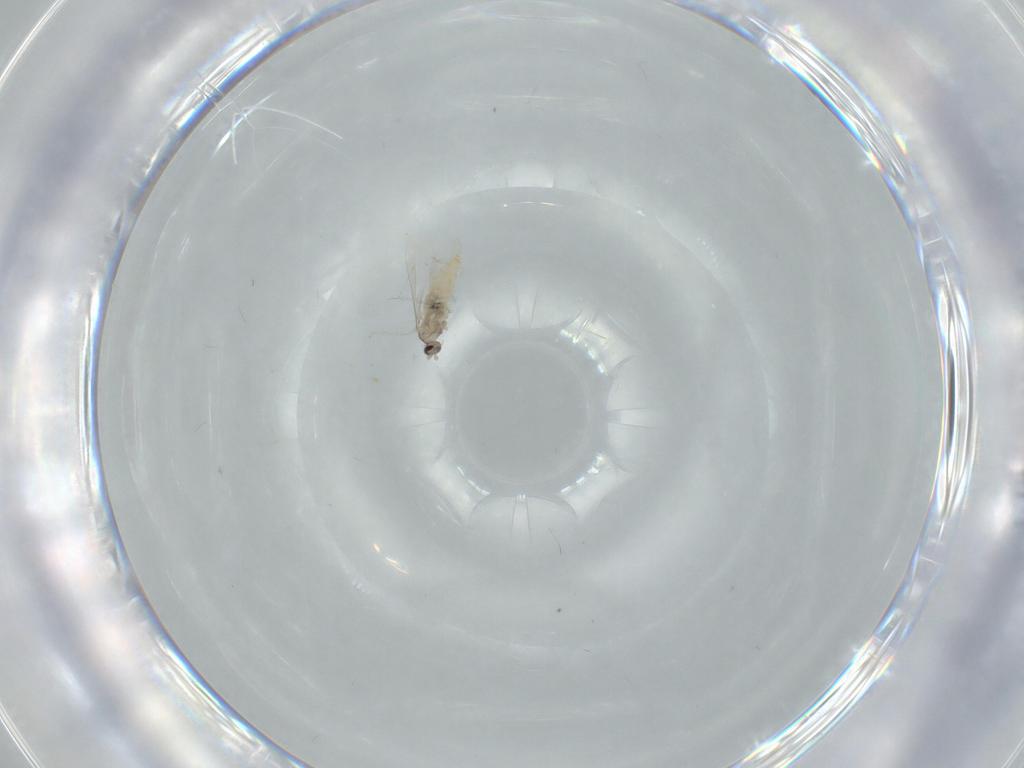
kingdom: Animalia
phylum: Arthropoda
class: Insecta
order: Diptera
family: Cecidomyiidae
